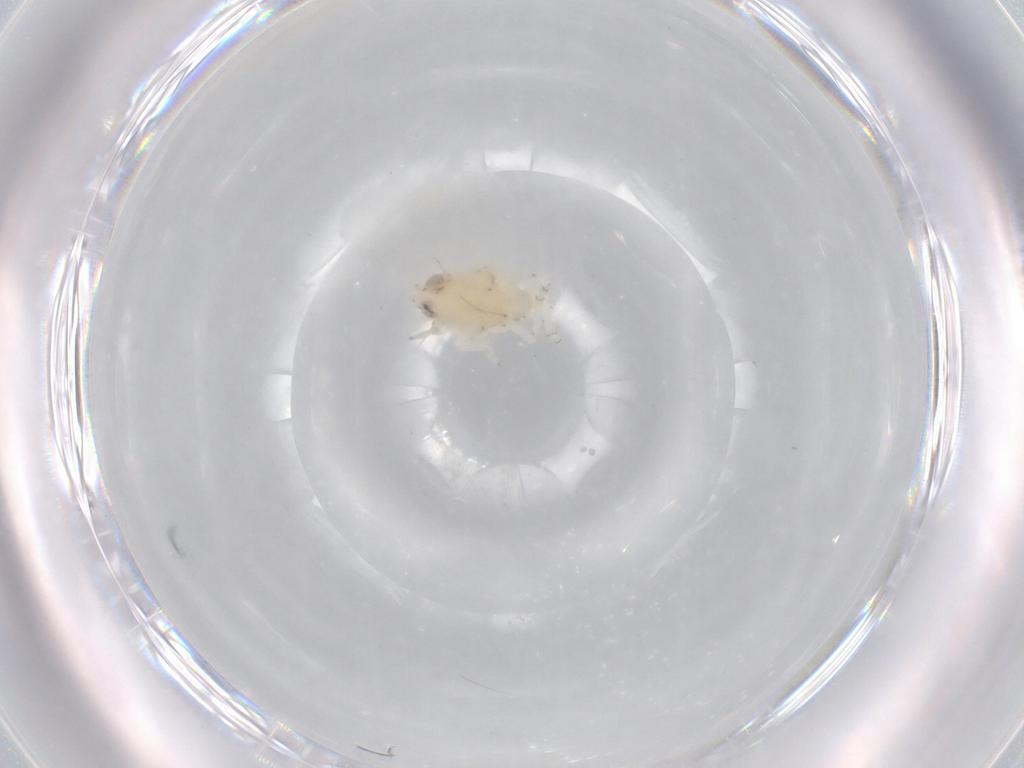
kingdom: Animalia
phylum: Arthropoda
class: Insecta
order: Hemiptera
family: Nogodinidae
